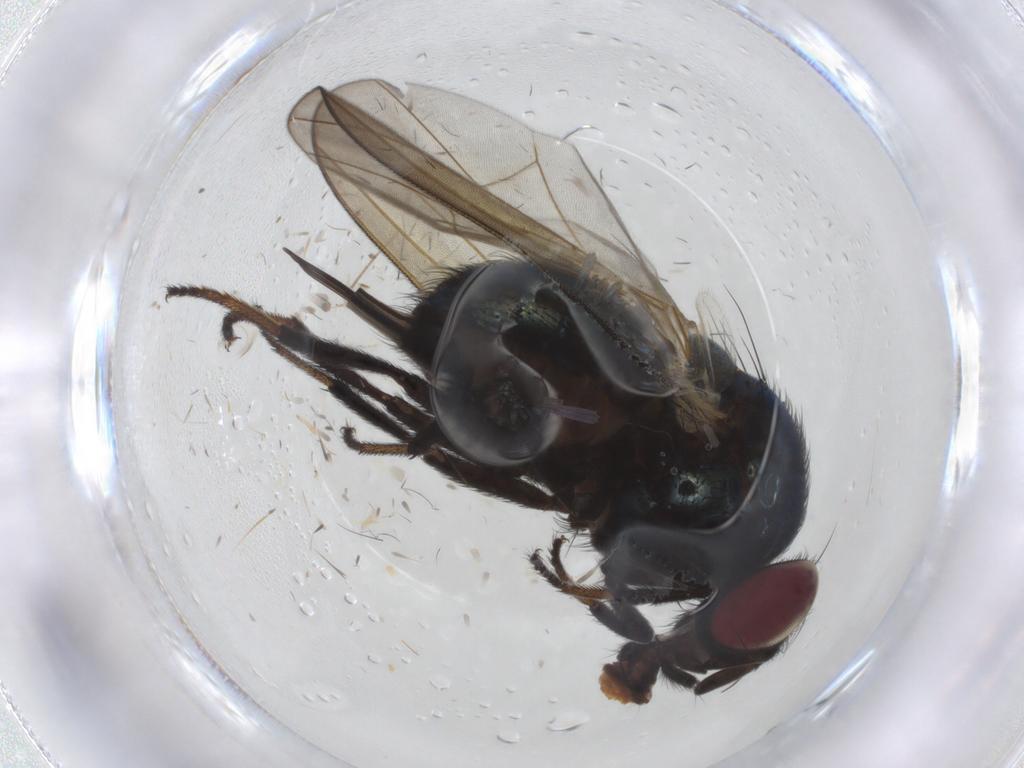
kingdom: Animalia
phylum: Arthropoda
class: Insecta
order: Diptera
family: Lonchaeidae
